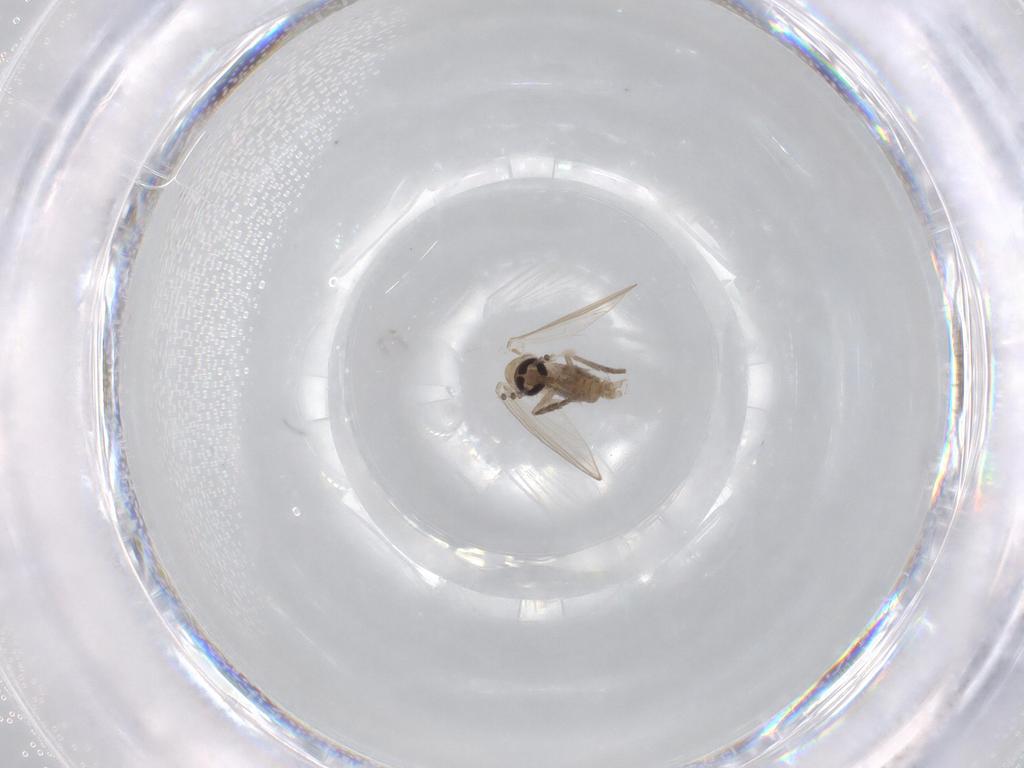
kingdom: Animalia
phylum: Arthropoda
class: Insecta
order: Diptera
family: Psychodidae
